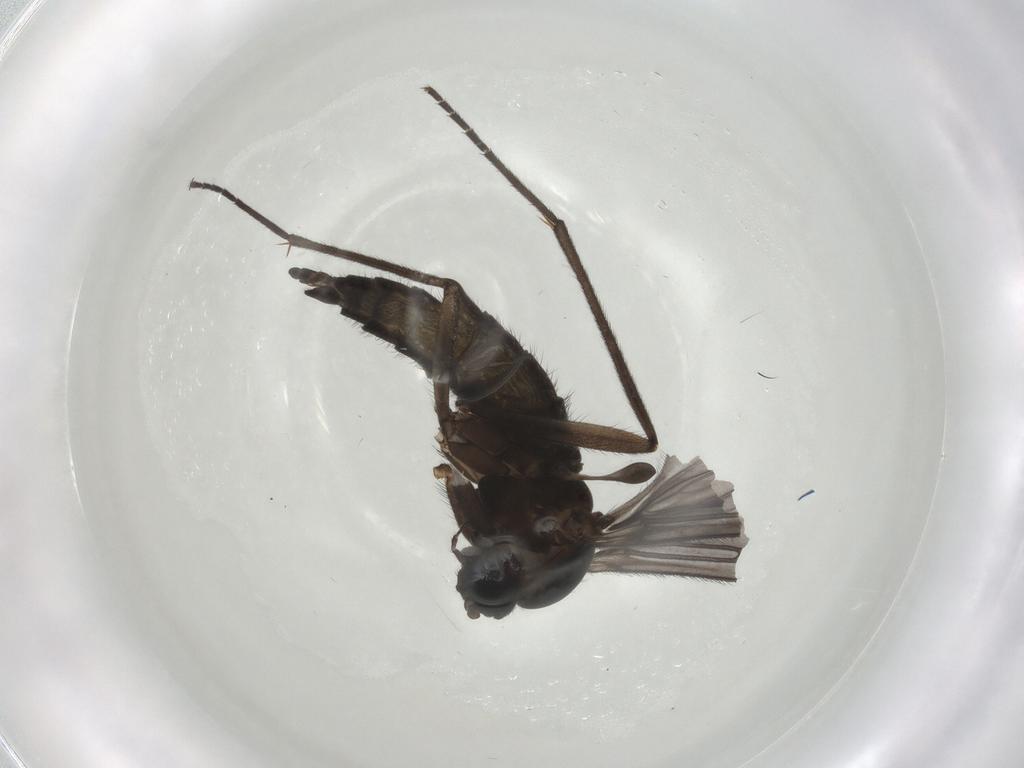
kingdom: Animalia
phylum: Arthropoda
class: Insecta
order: Diptera
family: Sciaridae
